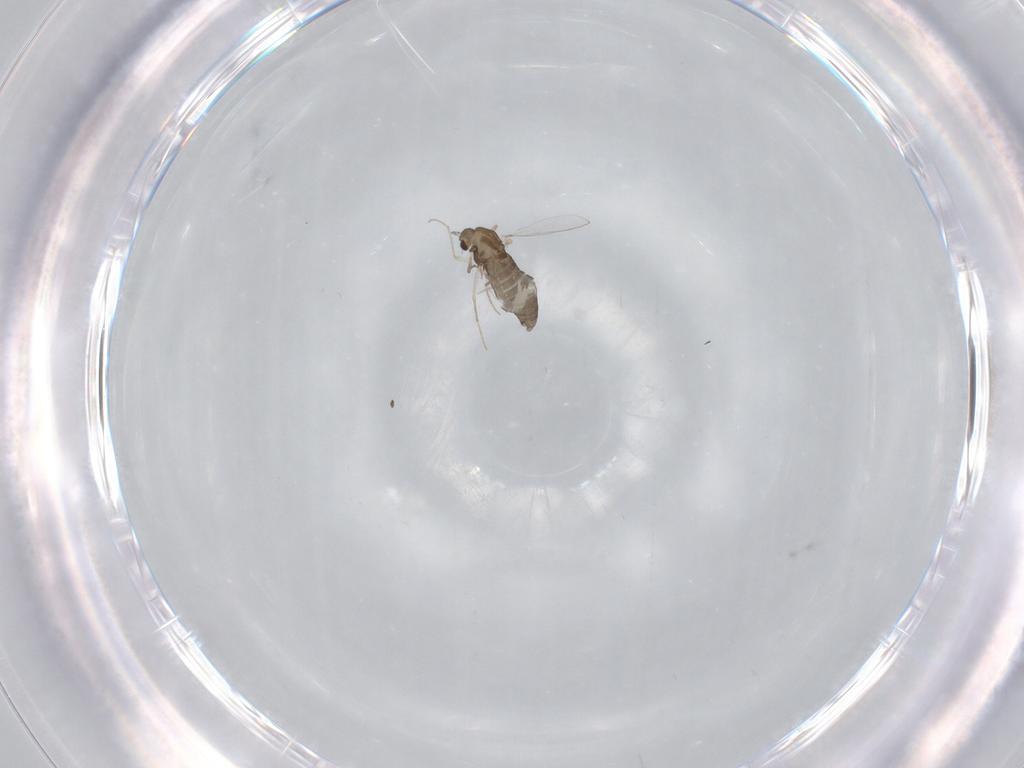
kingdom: Animalia
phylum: Arthropoda
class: Insecta
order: Diptera
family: Chironomidae
